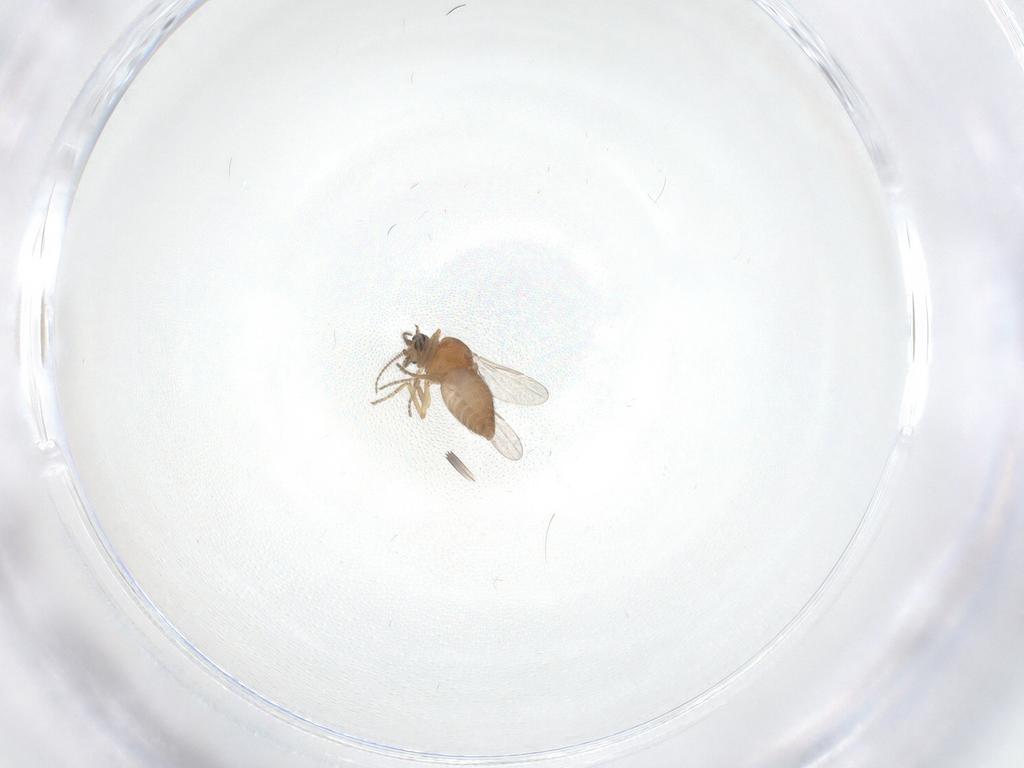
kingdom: Animalia
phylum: Arthropoda
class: Insecta
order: Diptera
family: Psychodidae
